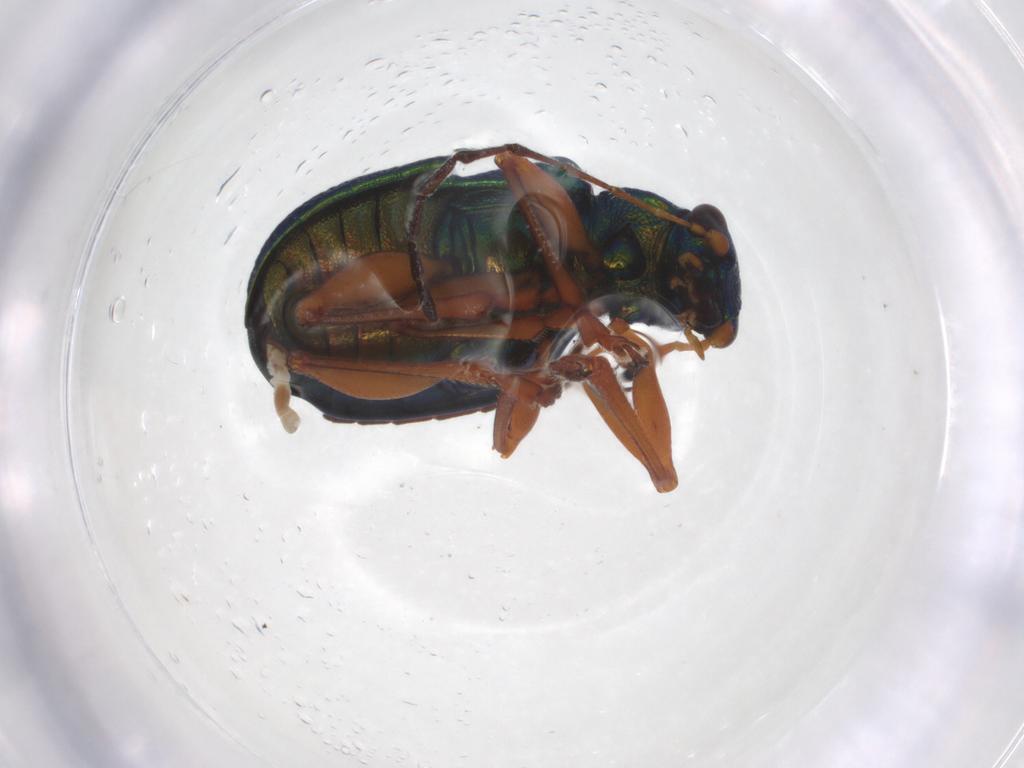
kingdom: Animalia
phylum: Arthropoda
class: Insecta
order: Coleoptera
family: Chrysomelidae
